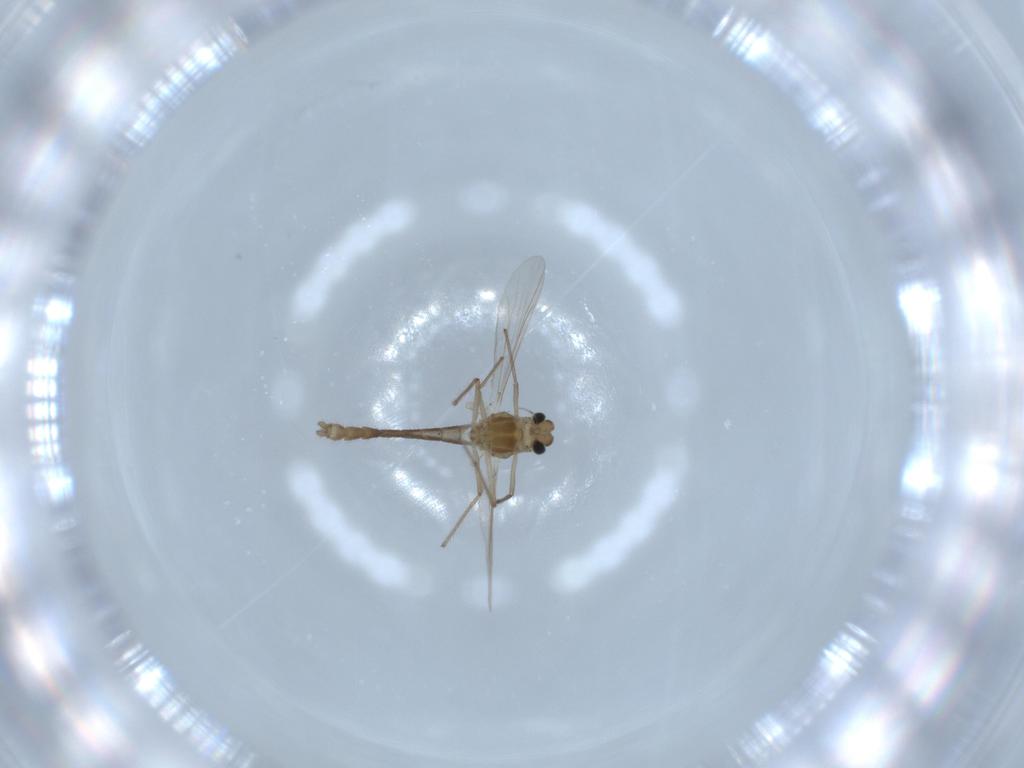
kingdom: Animalia
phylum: Arthropoda
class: Insecta
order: Diptera
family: Chironomidae
